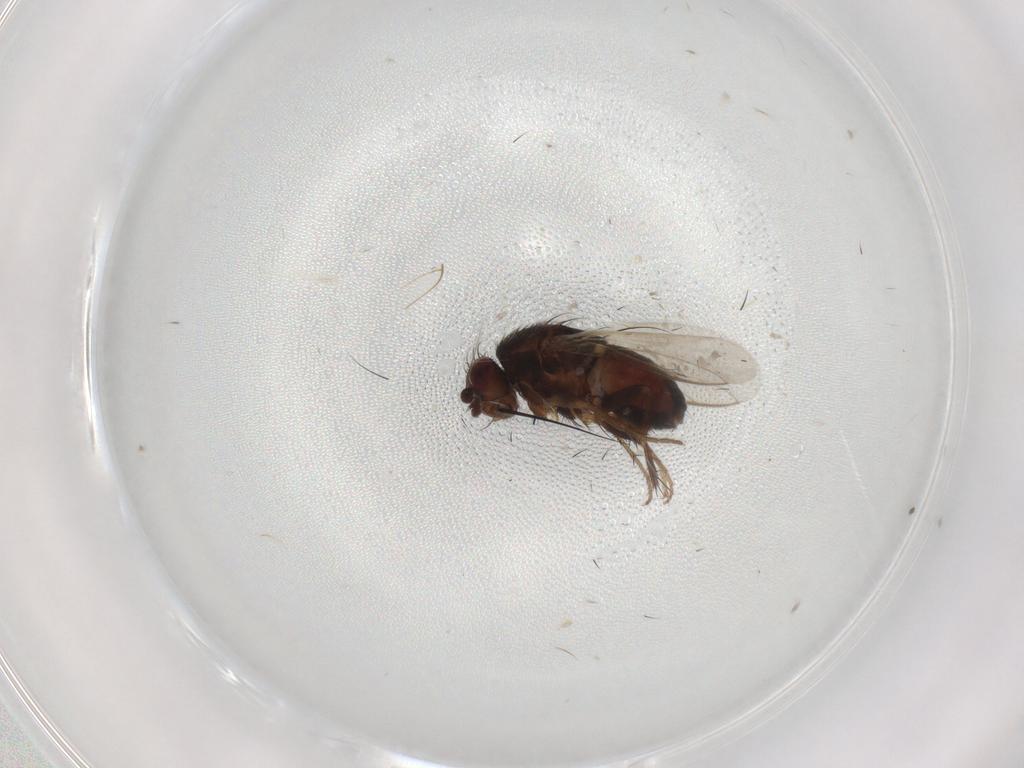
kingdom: Animalia
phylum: Arthropoda
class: Insecta
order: Diptera
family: Sphaeroceridae
